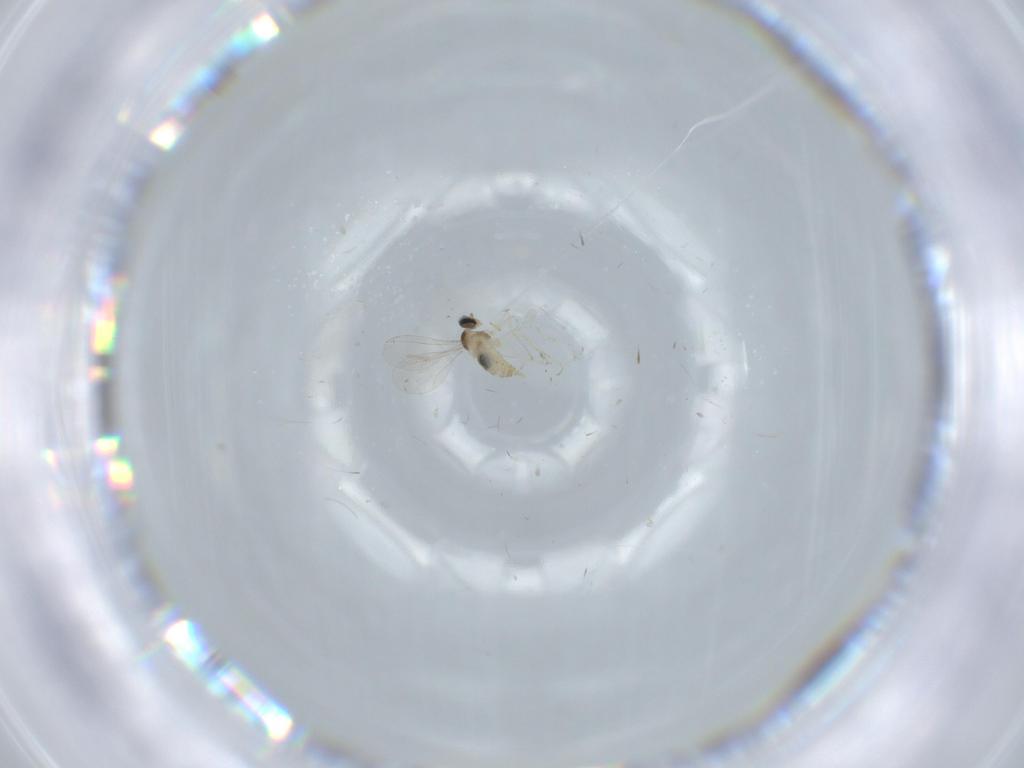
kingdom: Animalia
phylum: Arthropoda
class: Insecta
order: Diptera
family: Cecidomyiidae
